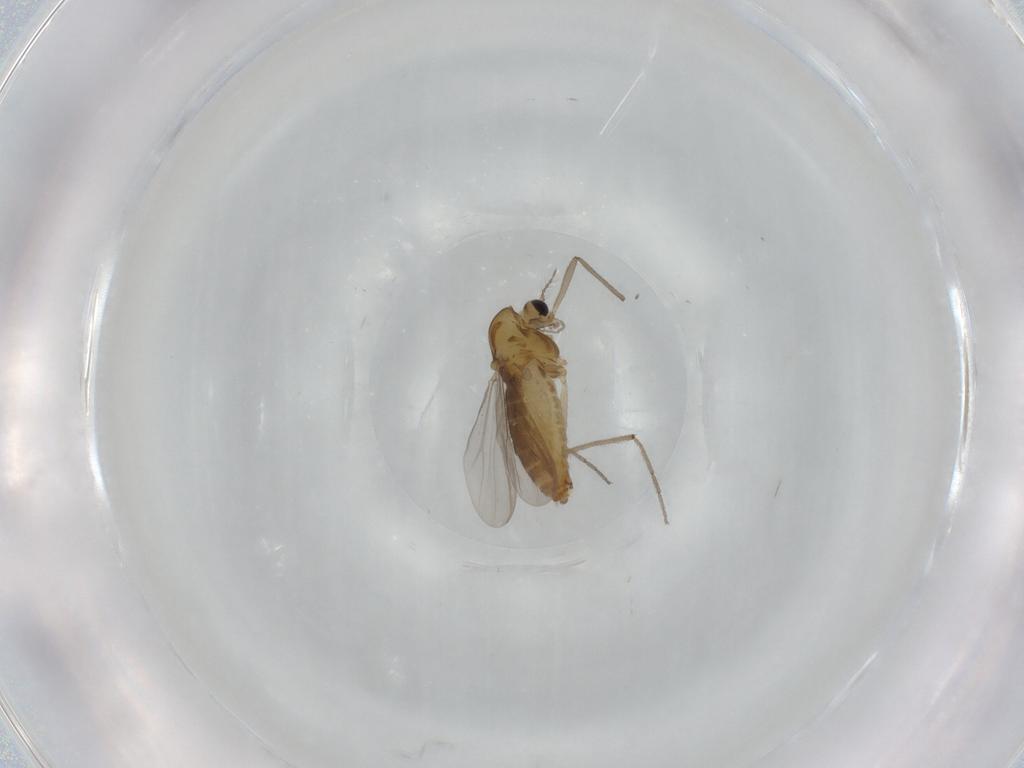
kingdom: Animalia
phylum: Arthropoda
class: Insecta
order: Diptera
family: Chironomidae
